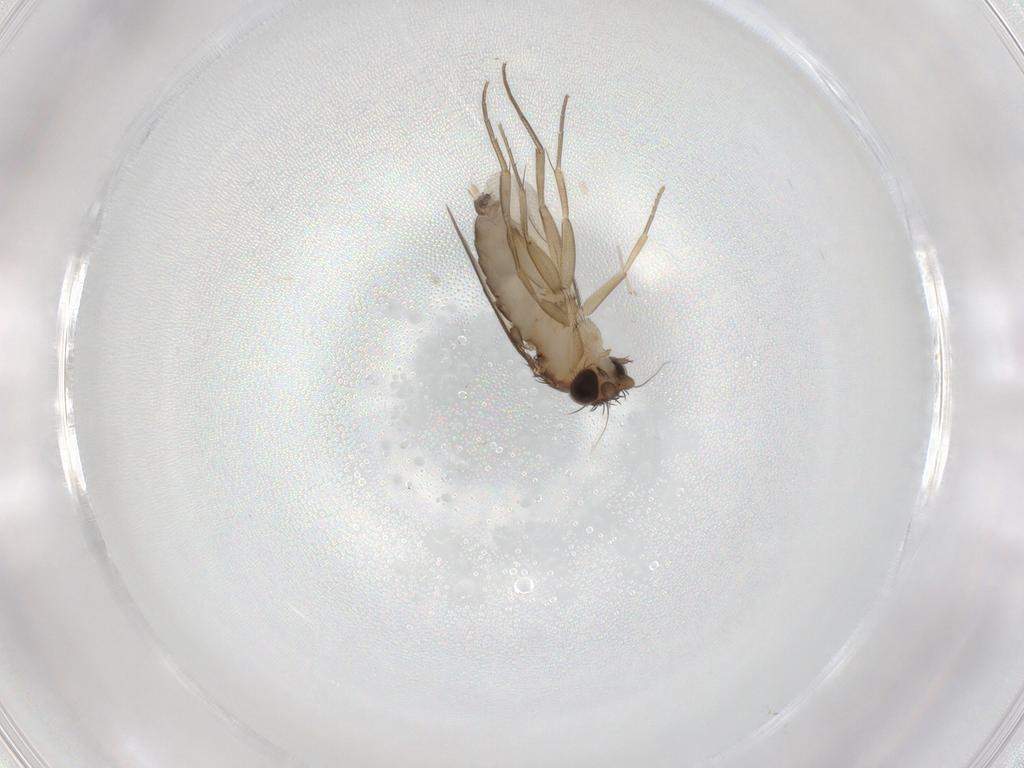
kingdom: Animalia
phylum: Arthropoda
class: Insecta
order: Diptera
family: Phoridae
